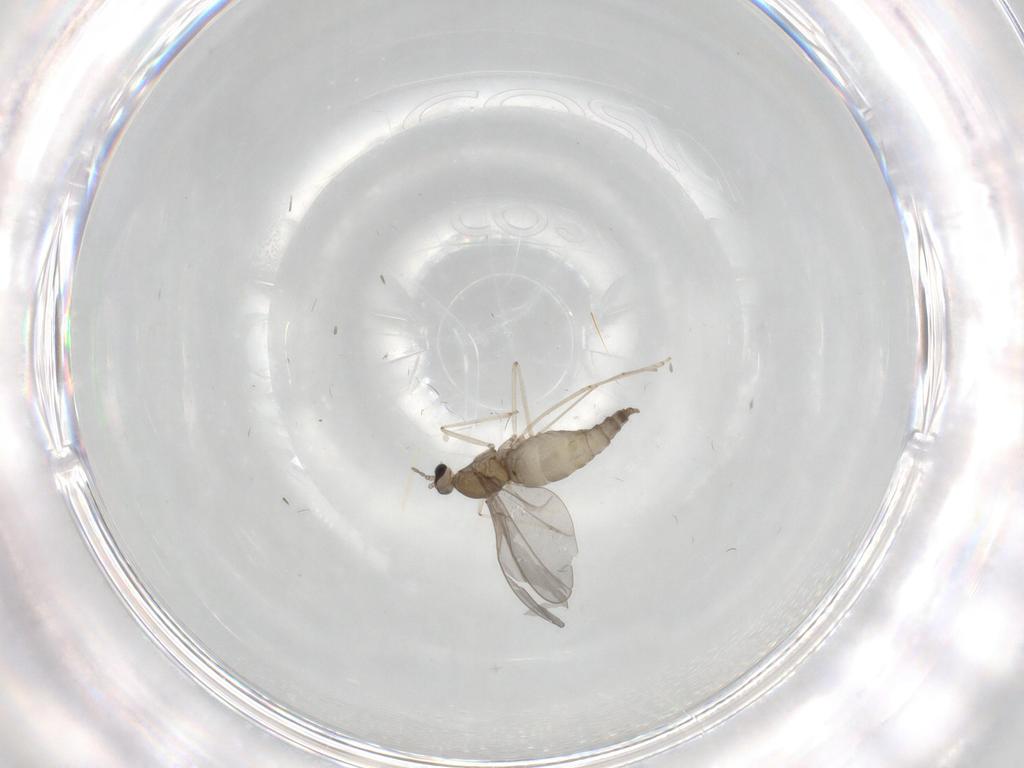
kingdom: Animalia
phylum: Arthropoda
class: Insecta
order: Diptera
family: Cecidomyiidae
